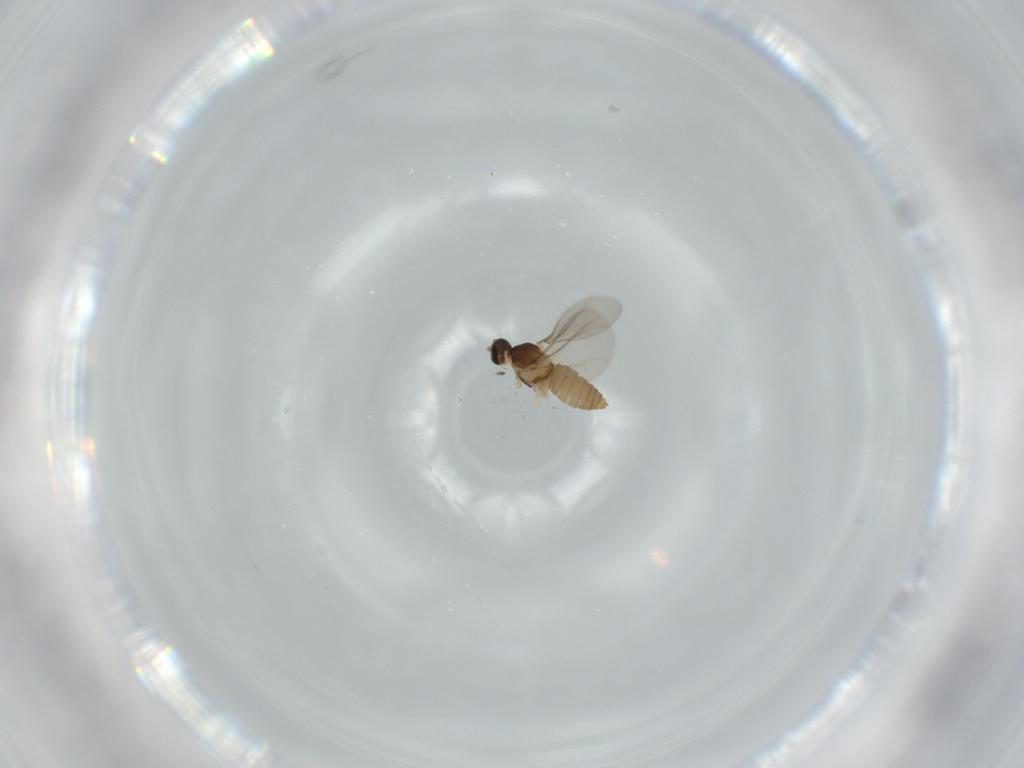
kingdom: Animalia
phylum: Arthropoda
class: Insecta
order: Diptera
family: Cecidomyiidae
